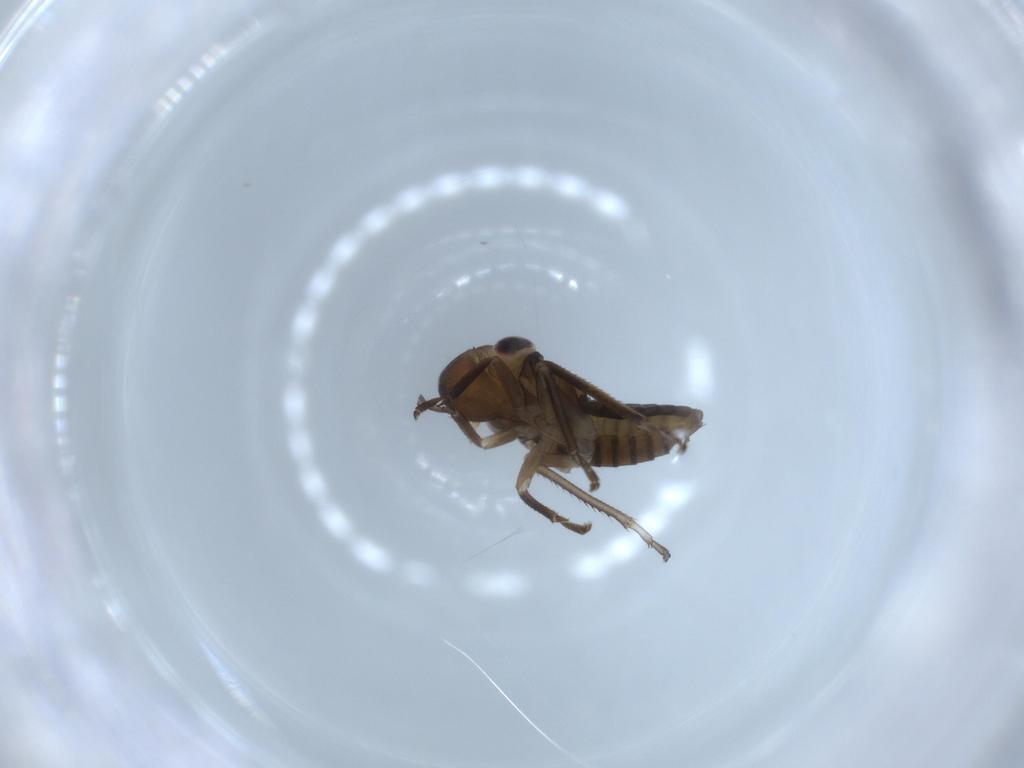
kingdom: Animalia
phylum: Arthropoda
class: Insecta
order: Hemiptera
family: Cicadellidae
